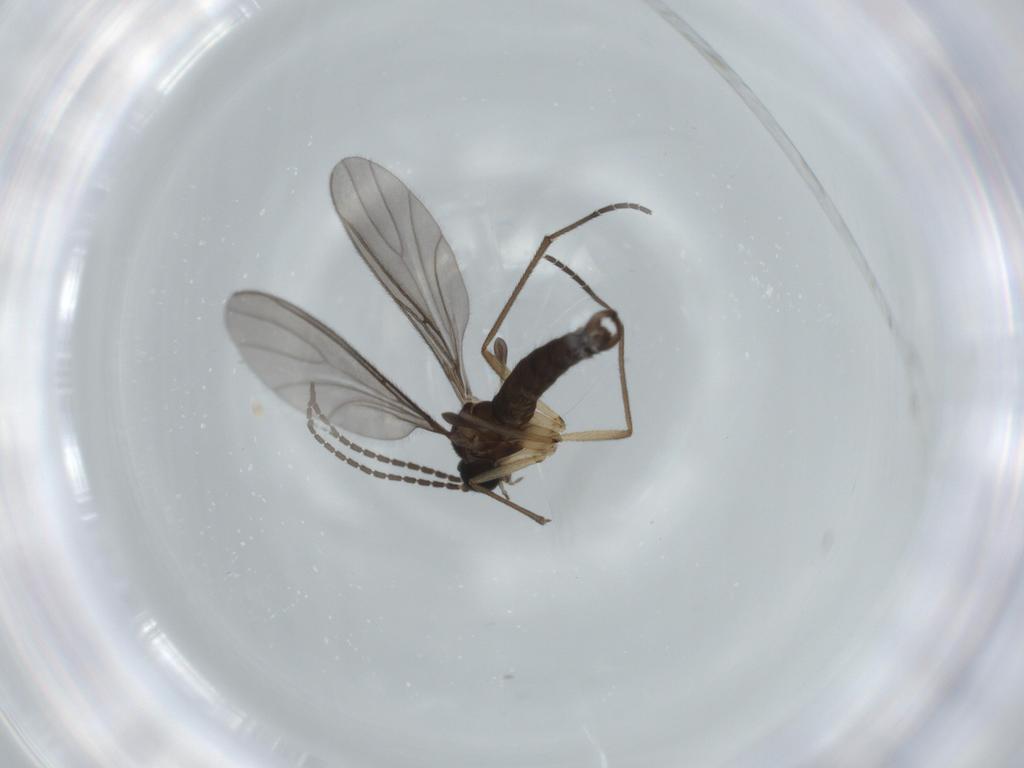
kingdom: Animalia
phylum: Arthropoda
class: Insecta
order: Diptera
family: Sciaridae
